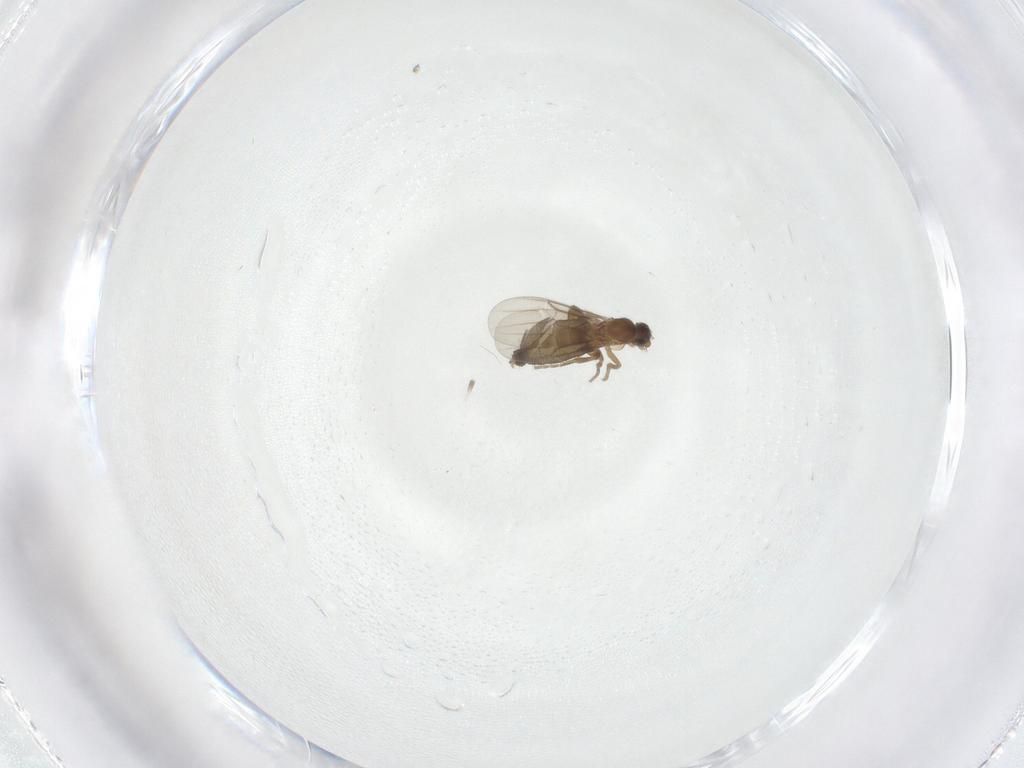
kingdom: Animalia
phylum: Arthropoda
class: Insecta
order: Diptera
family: Phoridae
